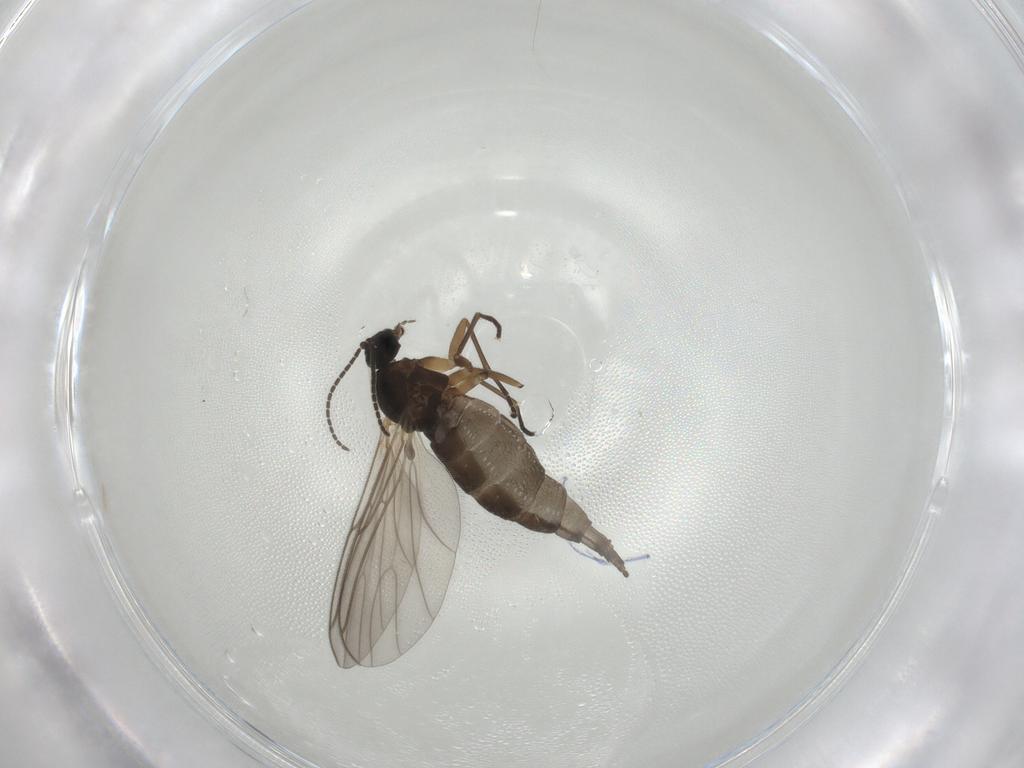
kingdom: Animalia
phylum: Arthropoda
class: Insecta
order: Diptera
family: Sciaridae
